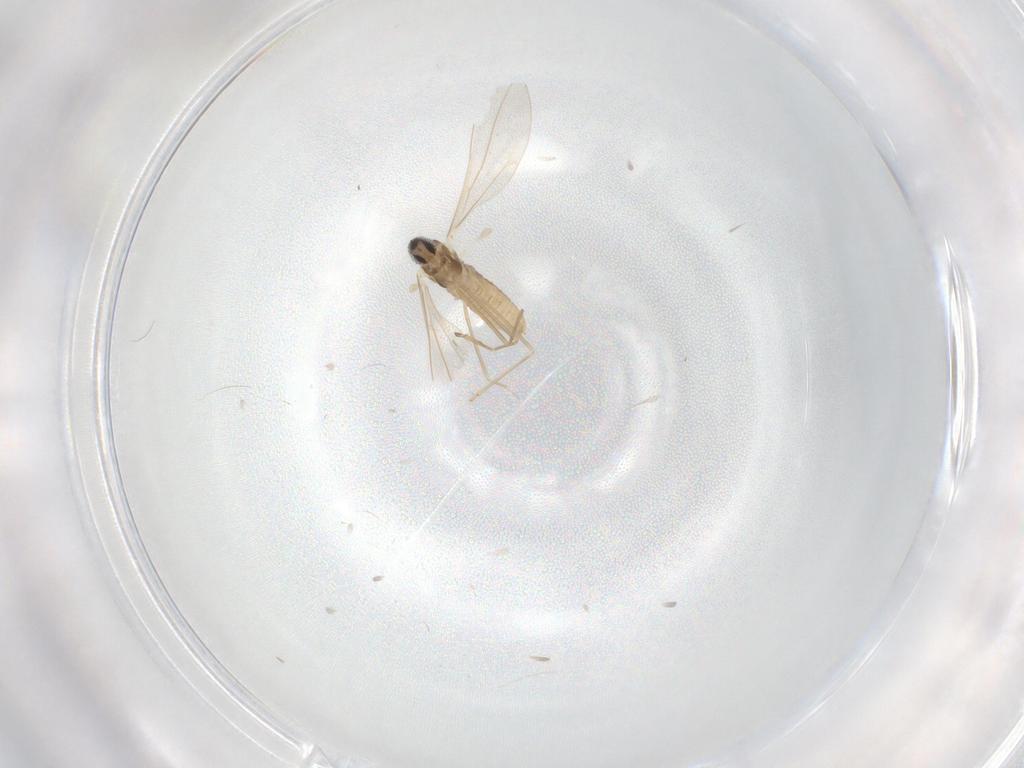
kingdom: Animalia
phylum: Arthropoda
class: Insecta
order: Diptera
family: Cecidomyiidae
